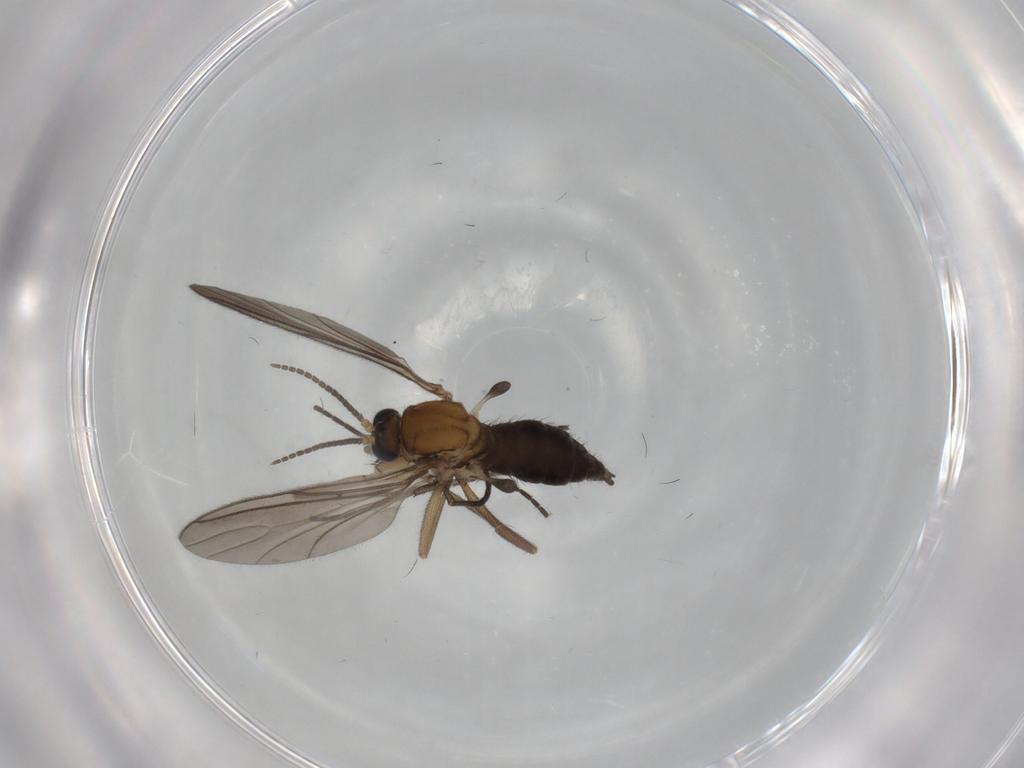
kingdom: Animalia
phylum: Arthropoda
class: Insecta
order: Diptera
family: Sciaridae
